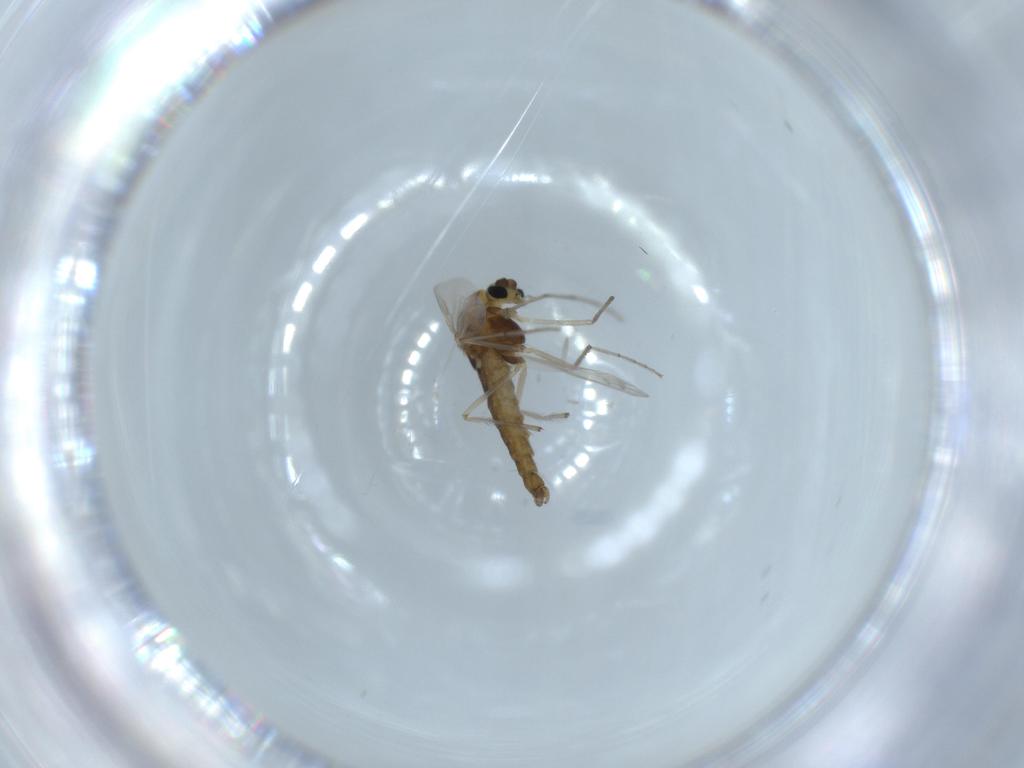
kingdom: Animalia
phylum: Arthropoda
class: Insecta
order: Diptera
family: Chironomidae
